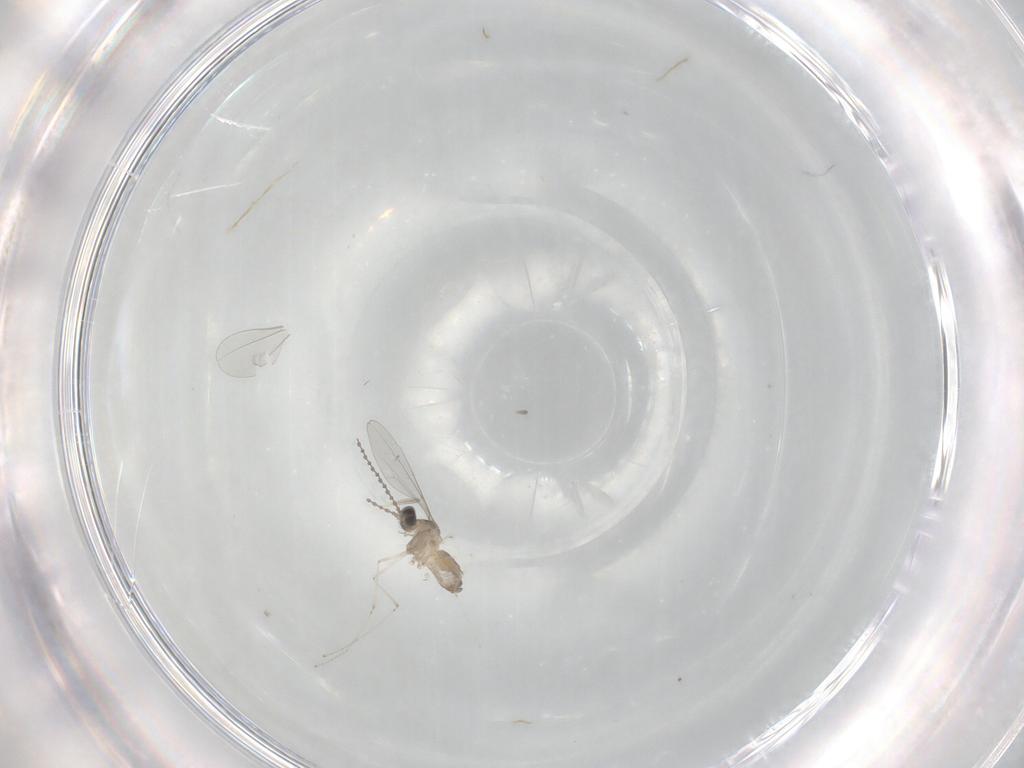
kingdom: Animalia
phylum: Arthropoda
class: Insecta
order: Diptera
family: Cecidomyiidae
